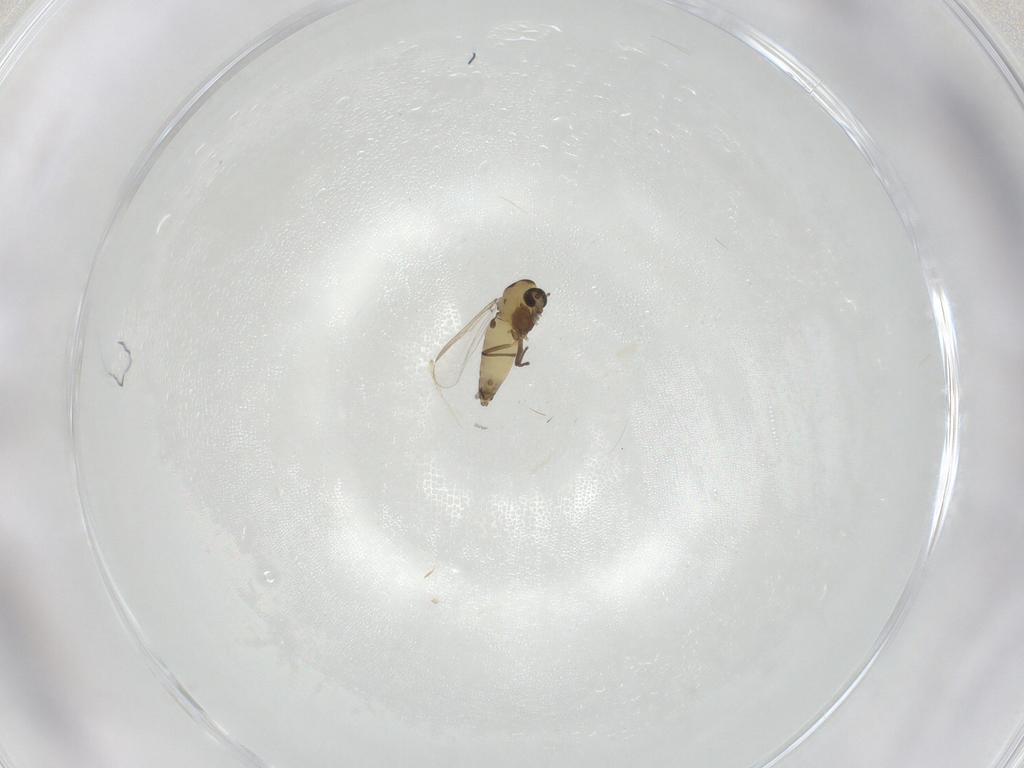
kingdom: Animalia
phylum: Arthropoda
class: Insecta
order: Diptera
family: Chironomidae
